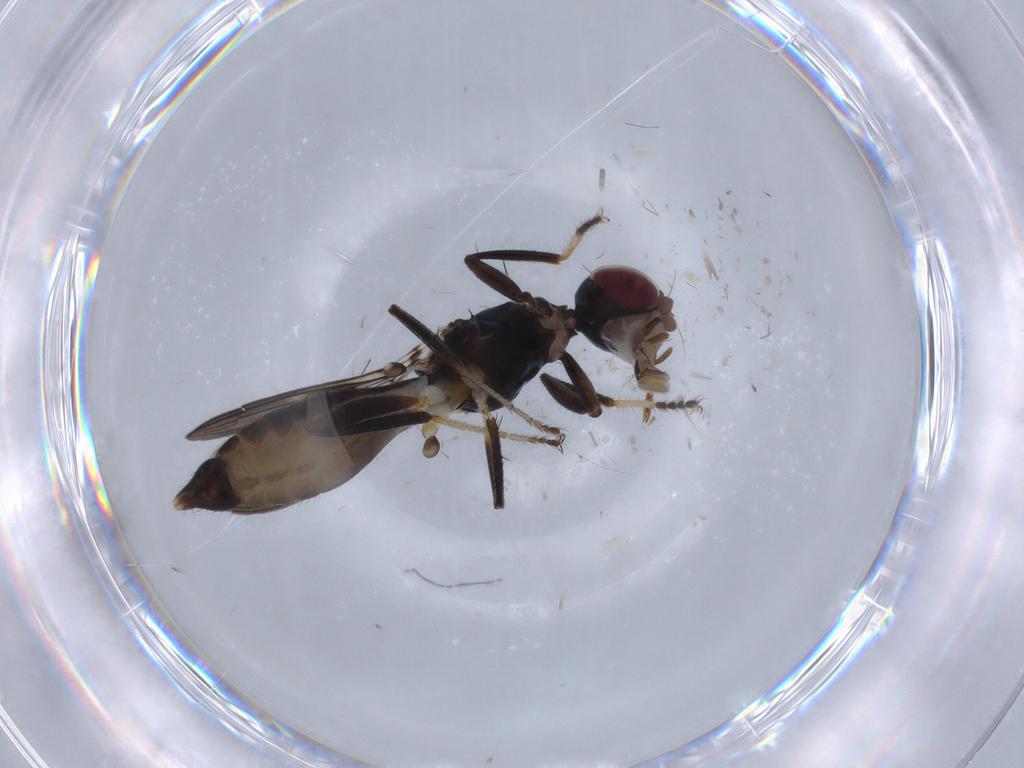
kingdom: Animalia
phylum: Arthropoda
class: Insecta
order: Diptera
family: Cypselosomatidae
